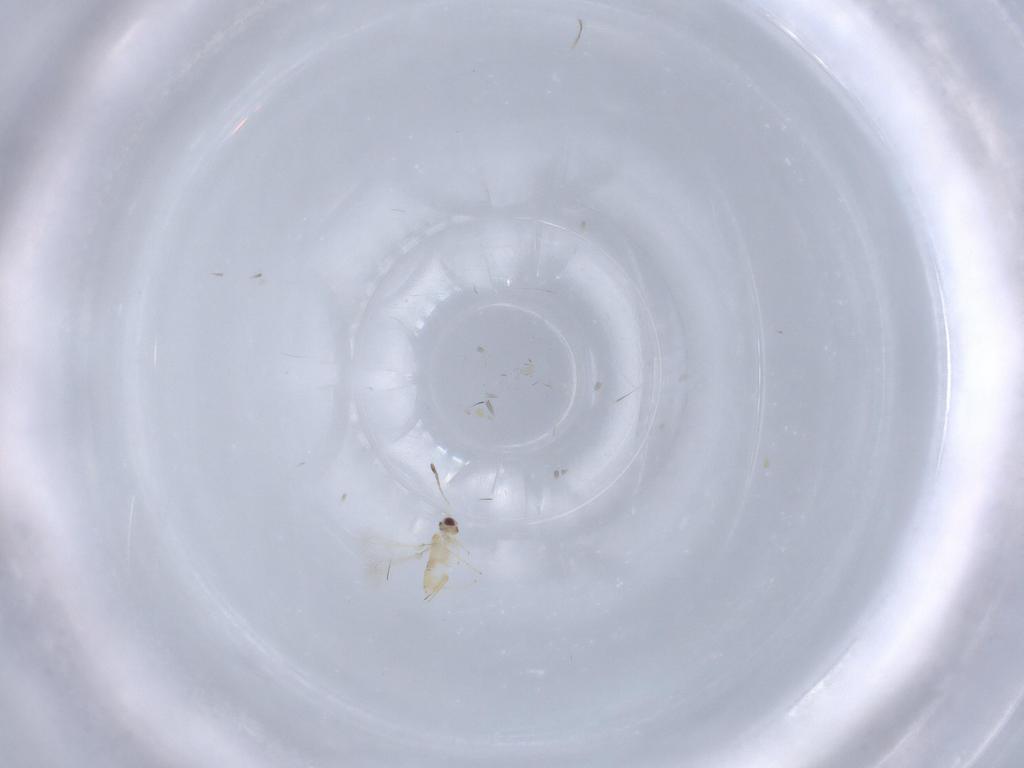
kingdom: Animalia
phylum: Arthropoda
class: Insecta
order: Hymenoptera
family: Mymaridae
